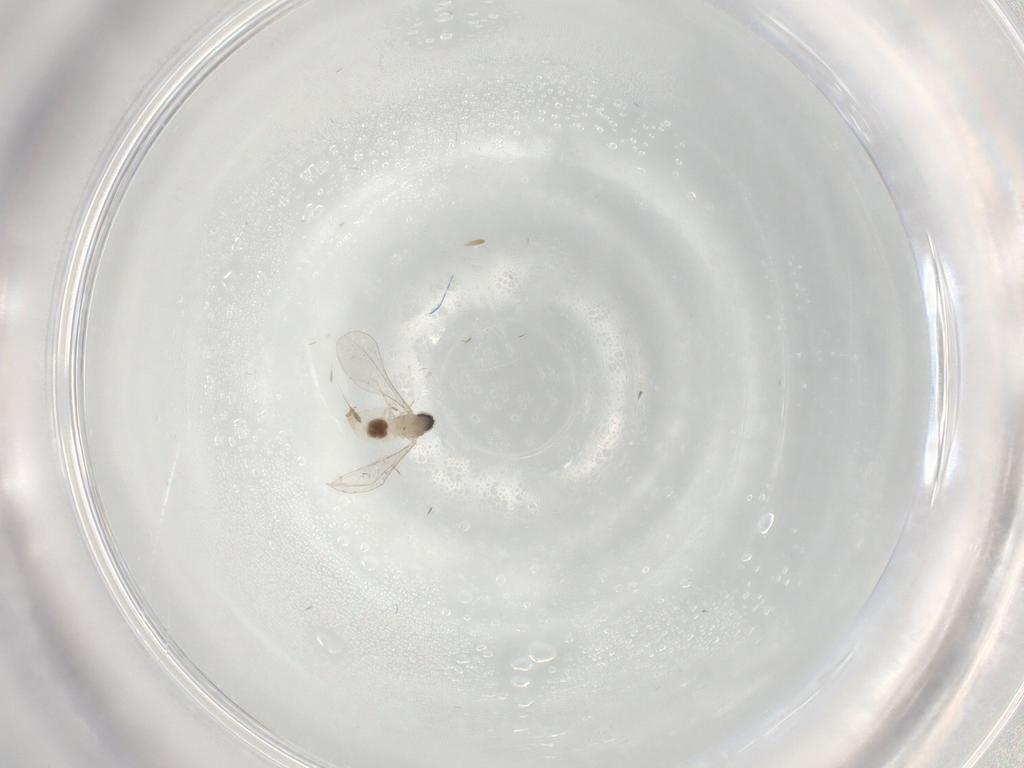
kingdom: Animalia
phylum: Arthropoda
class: Insecta
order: Diptera
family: Cecidomyiidae
